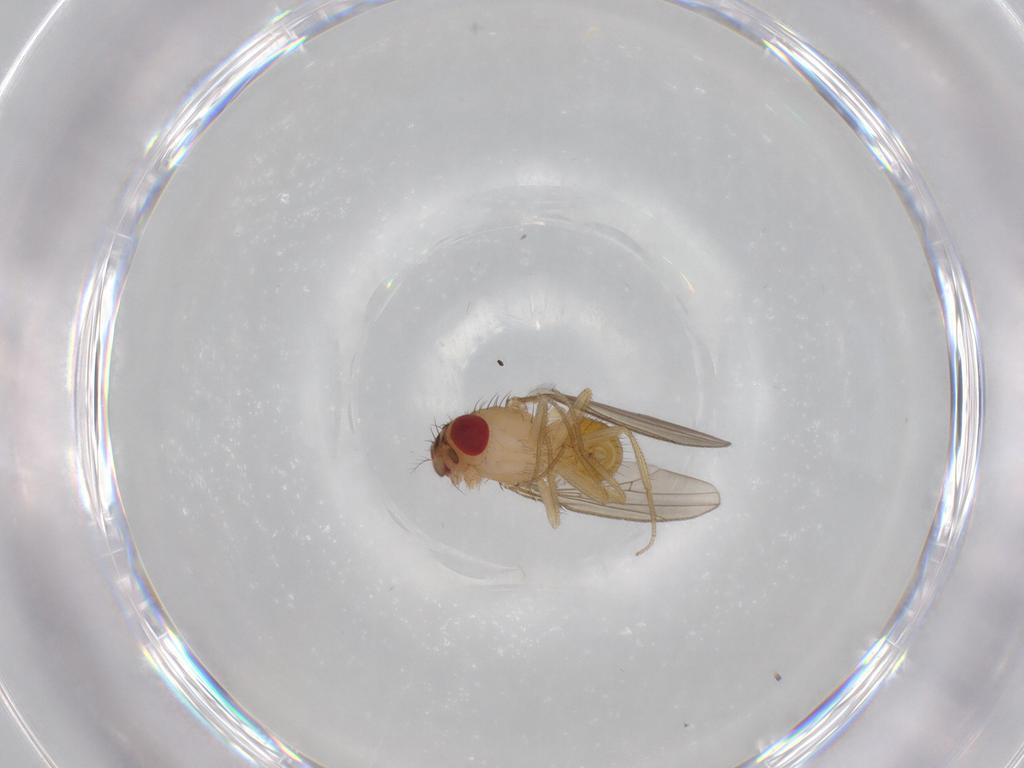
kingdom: Animalia
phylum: Arthropoda
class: Insecta
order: Diptera
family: Drosophilidae
